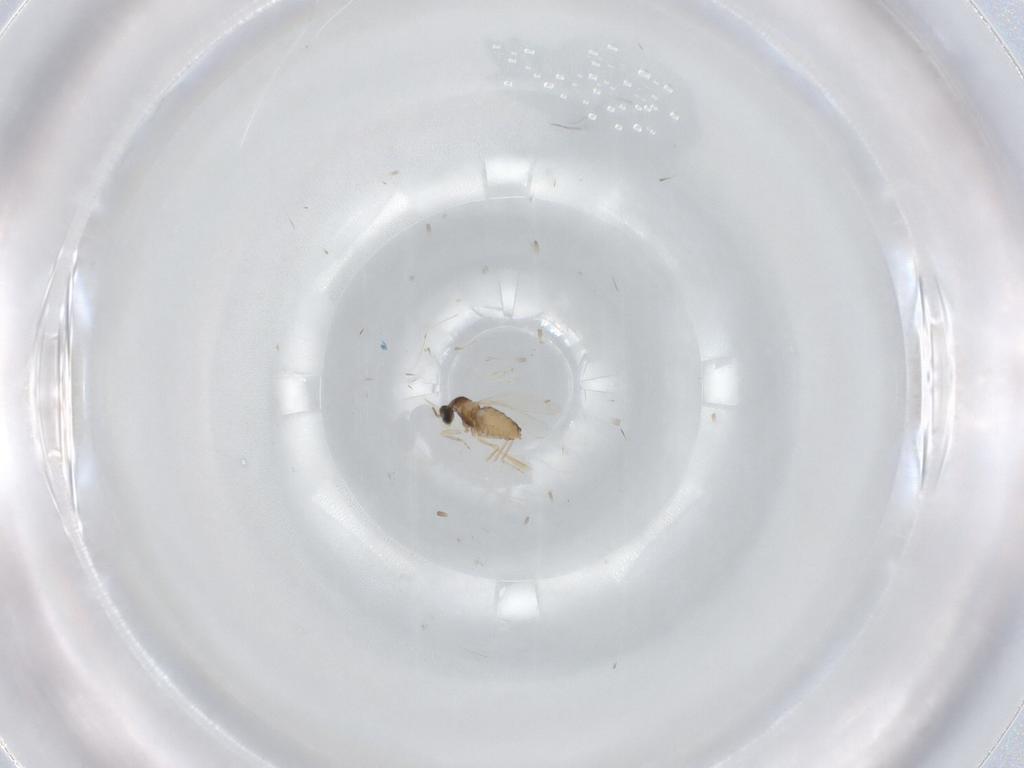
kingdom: Animalia
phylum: Arthropoda
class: Insecta
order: Diptera
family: Cecidomyiidae
